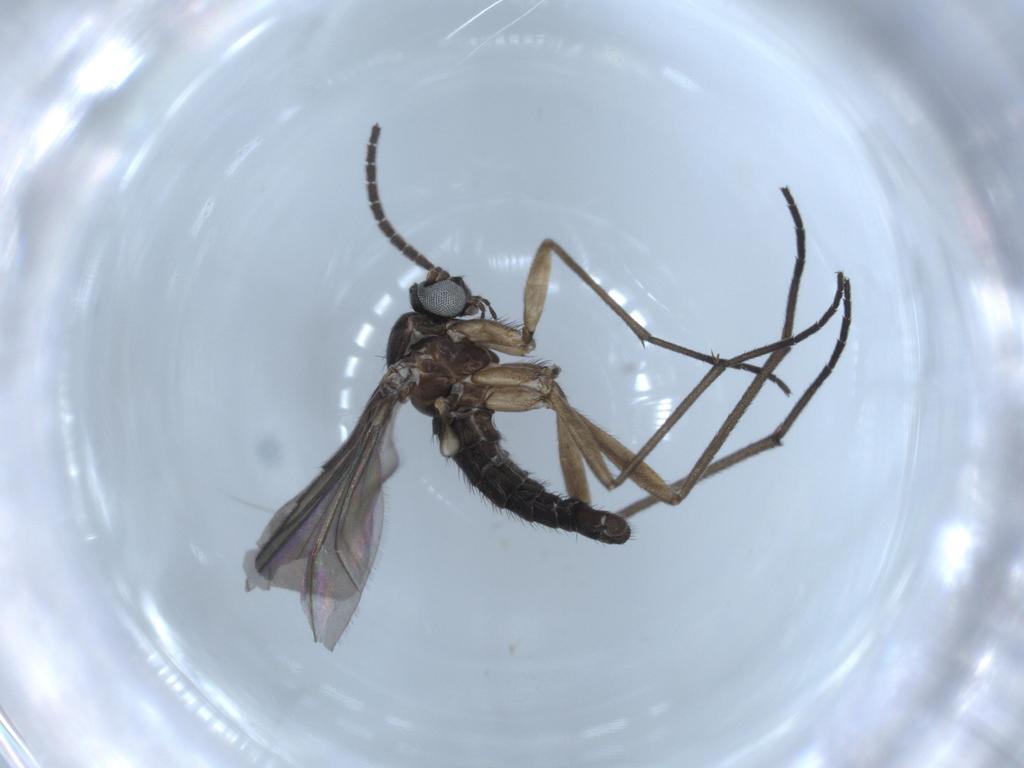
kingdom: Animalia
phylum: Arthropoda
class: Insecta
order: Diptera
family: Sciaridae
